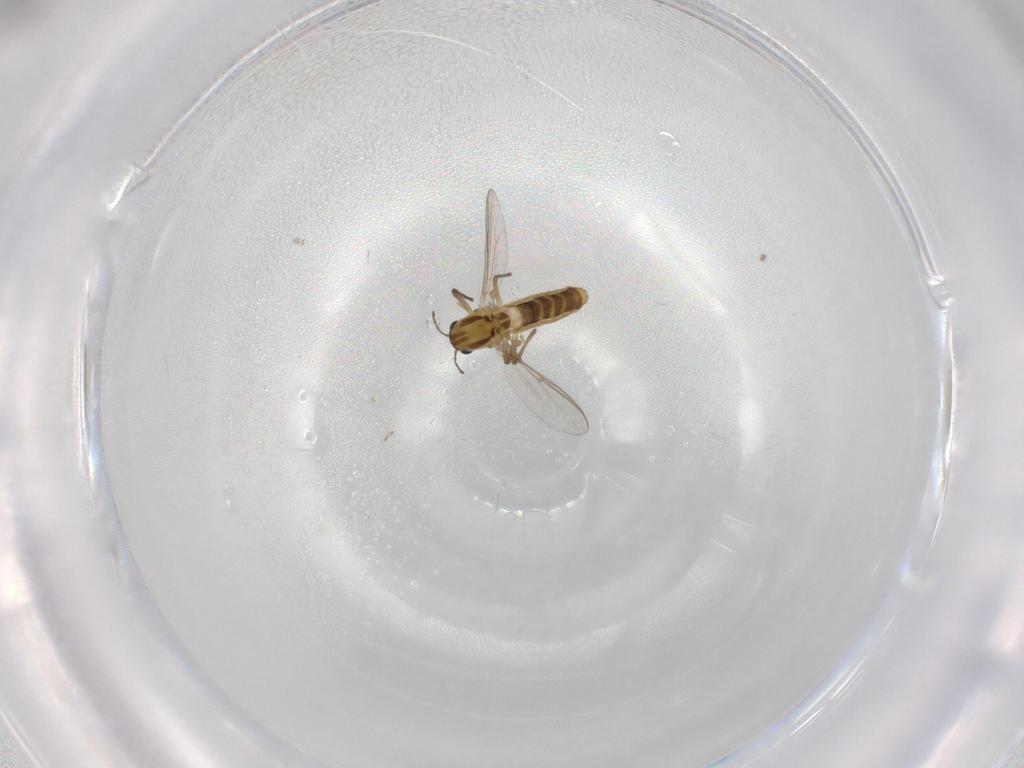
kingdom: Animalia
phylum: Arthropoda
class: Insecta
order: Diptera
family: Chironomidae
